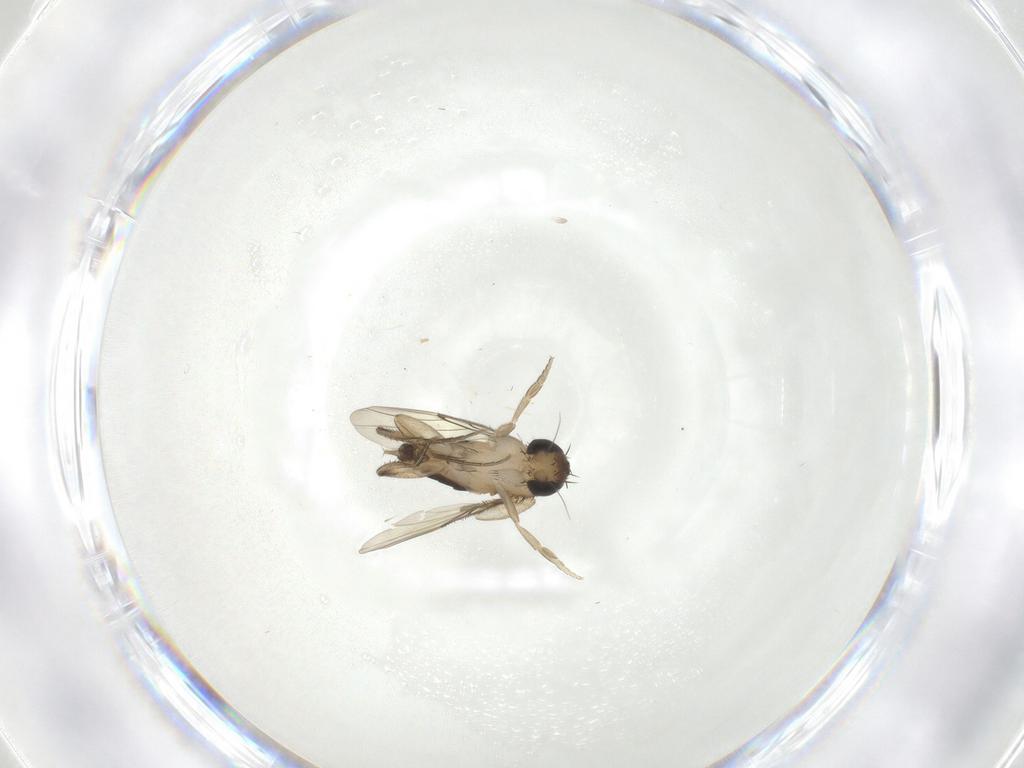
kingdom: Animalia
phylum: Arthropoda
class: Insecta
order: Diptera
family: Phoridae
